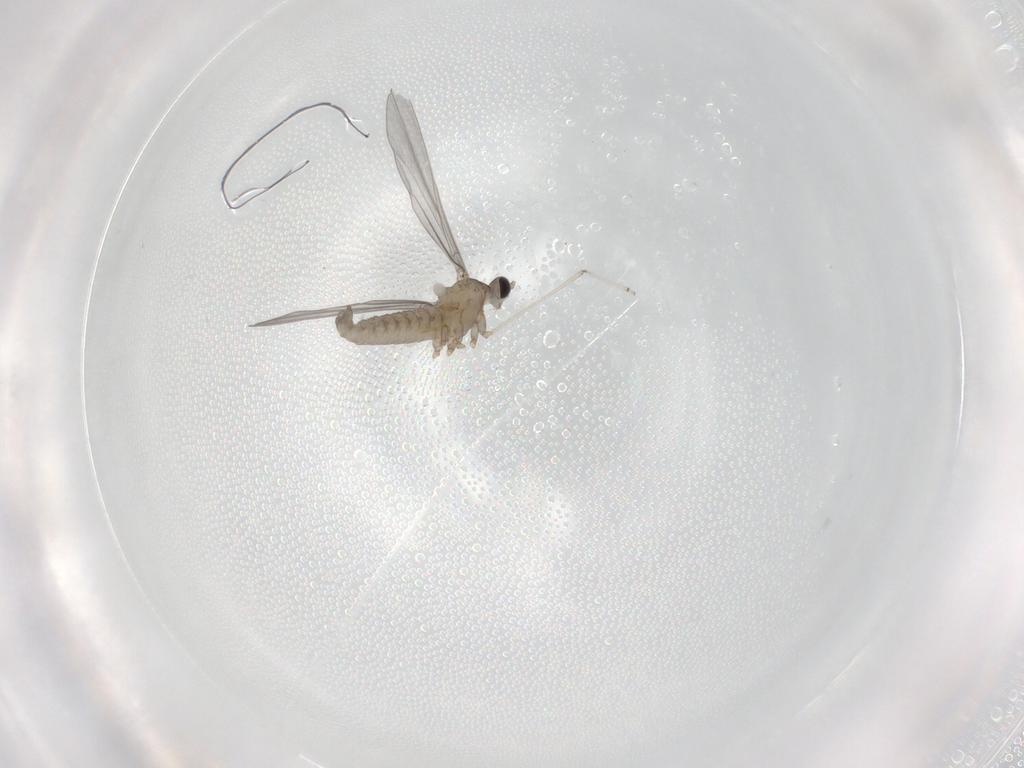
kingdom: Animalia
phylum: Arthropoda
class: Insecta
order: Diptera
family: Cecidomyiidae
